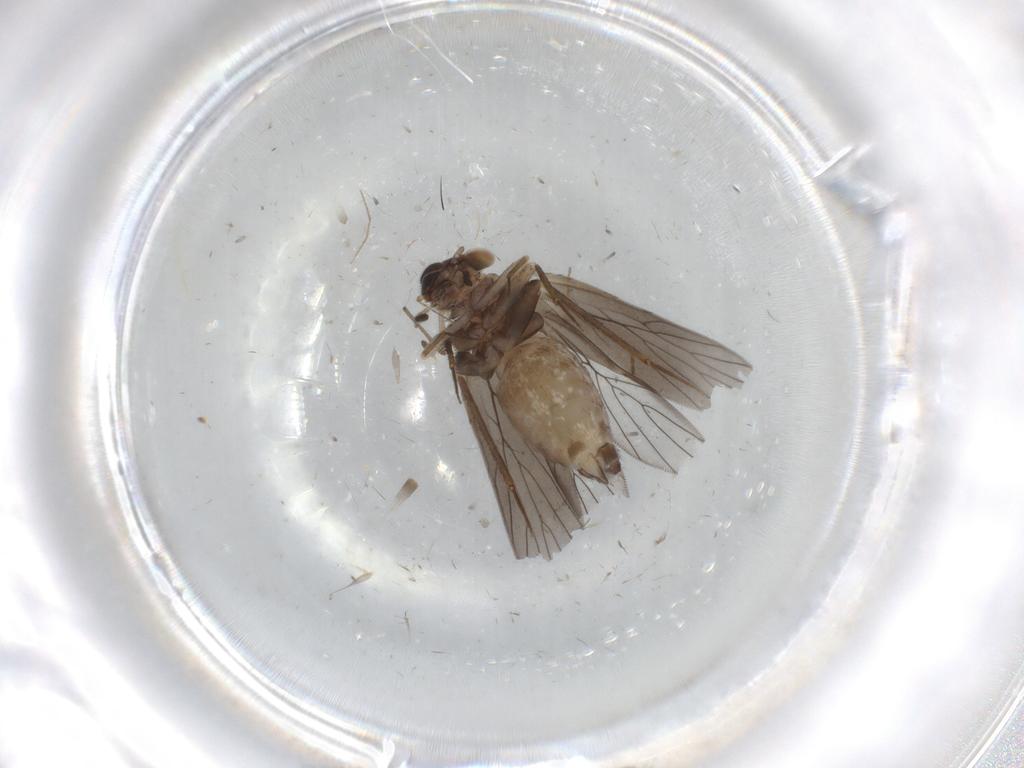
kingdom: Animalia
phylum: Arthropoda
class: Insecta
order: Psocodea
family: Lepidopsocidae
